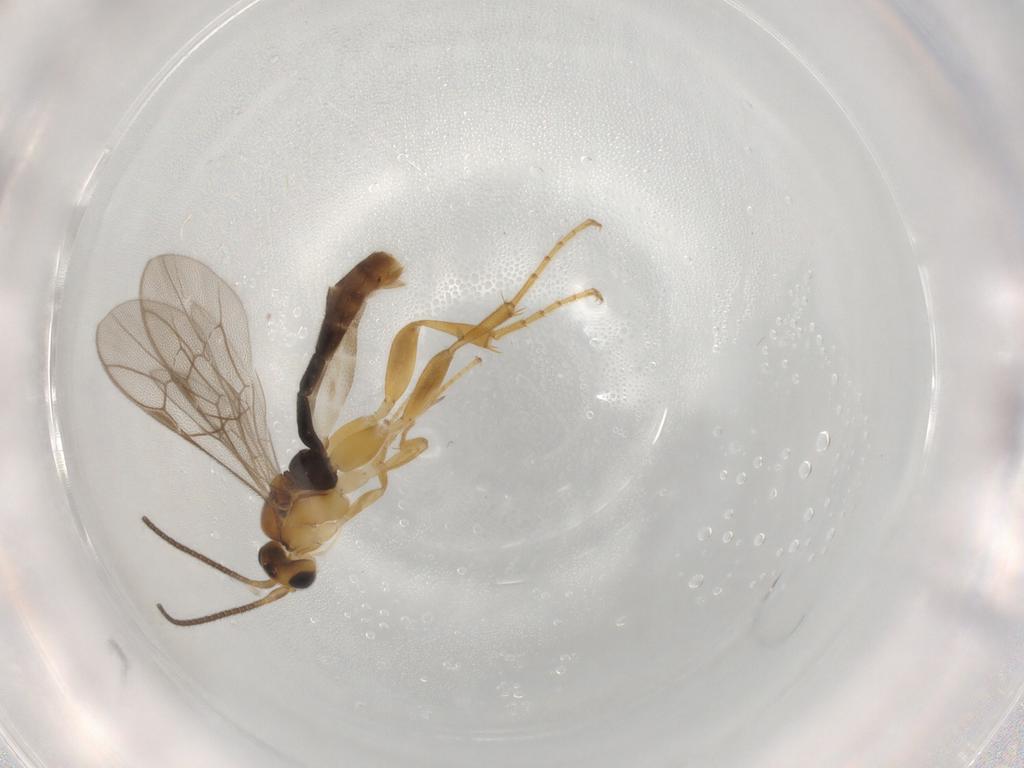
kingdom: Animalia
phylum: Arthropoda
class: Insecta
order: Hymenoptera
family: Ichneumonidae
